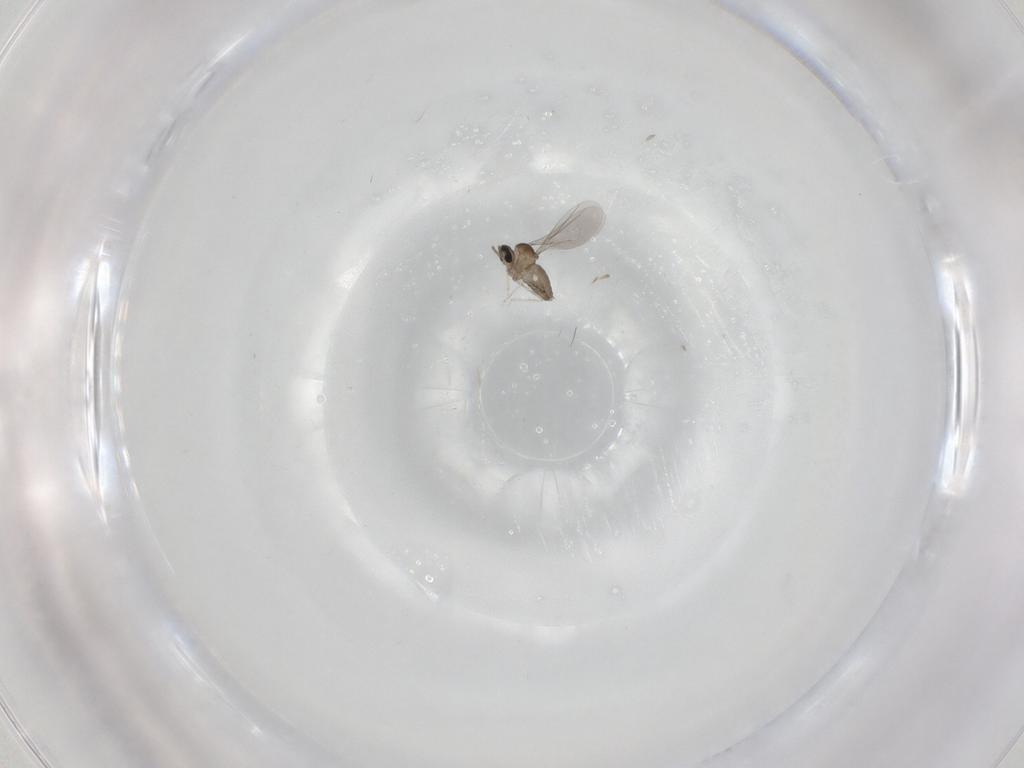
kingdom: Animalia
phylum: Arthropoda
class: Insecta
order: Diptera
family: Cecidomyiidae
